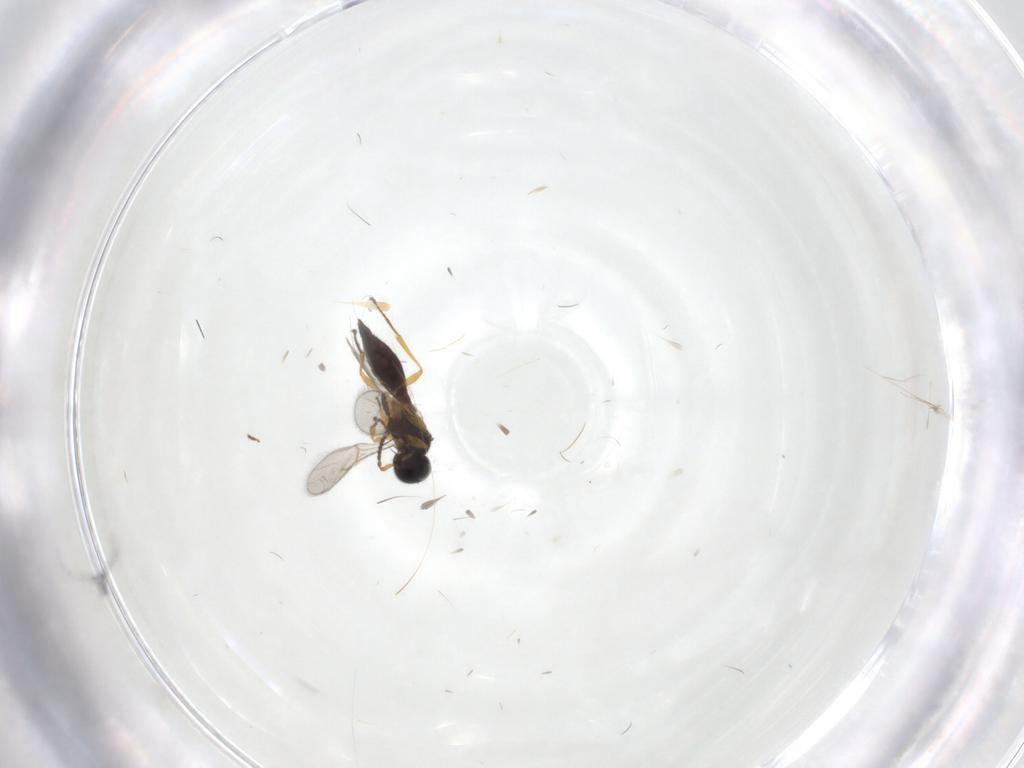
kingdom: Animalia
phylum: Arthropoda
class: Insecta
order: Hymenoptera
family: Scelionidae
